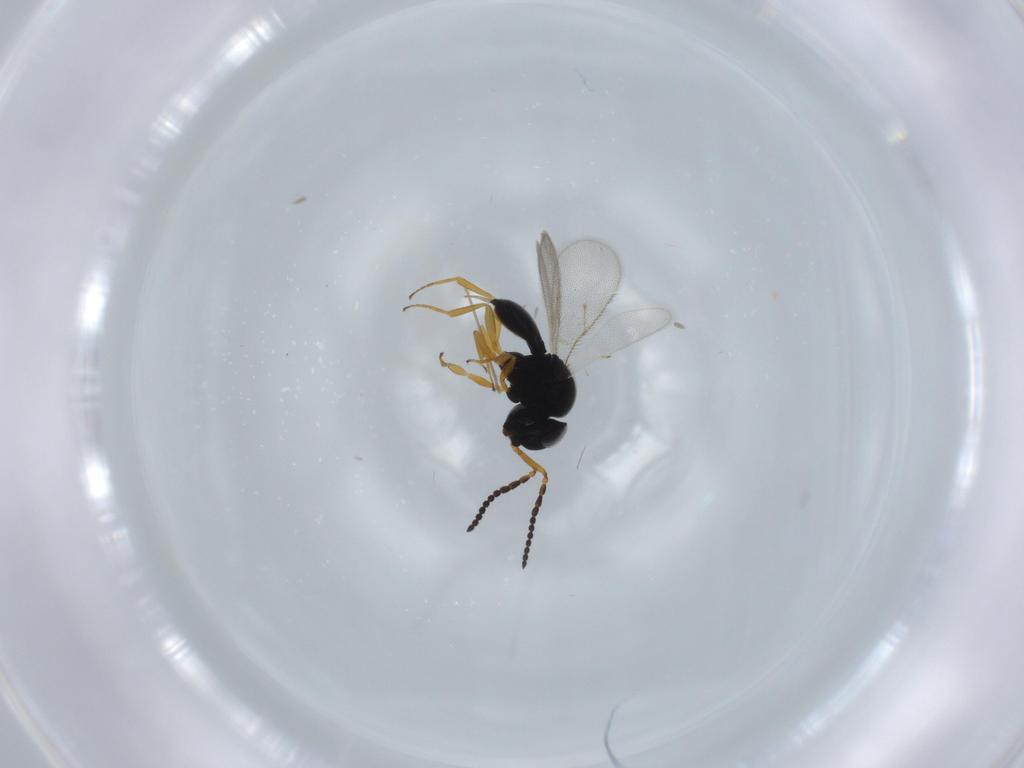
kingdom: Animalia
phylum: Arthropoda
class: Insecta
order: Hymenoptera
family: Scelionidae
